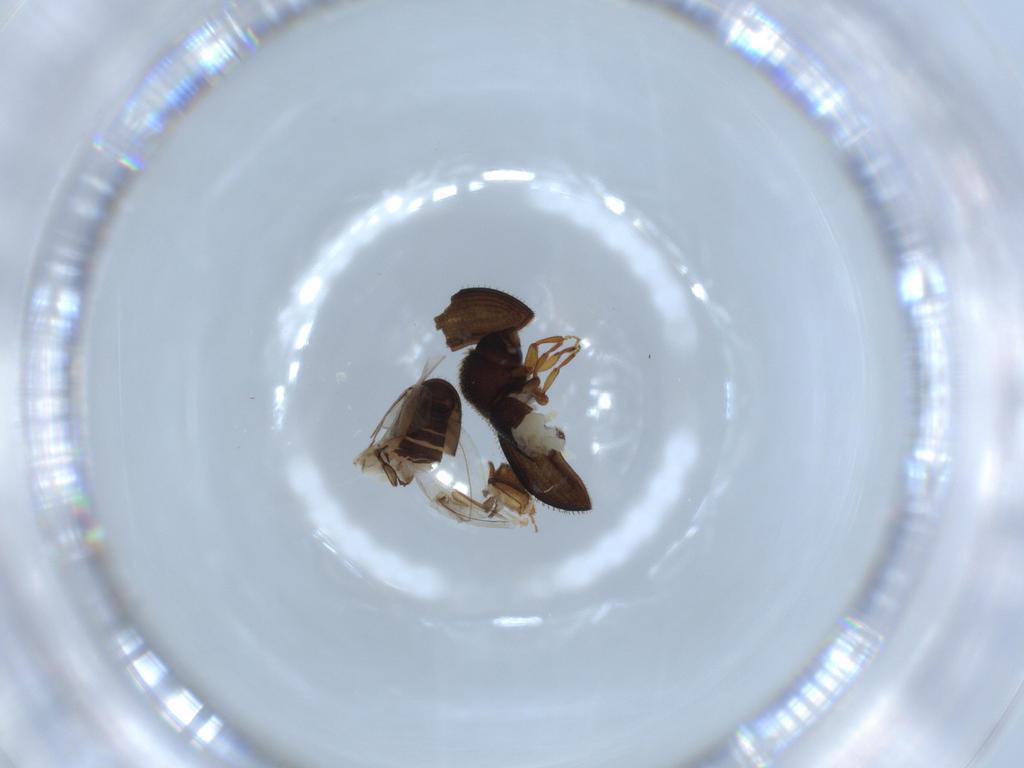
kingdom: Animalia
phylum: Arthropoda
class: Insecta
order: Coleoptera
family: Curculionidae
